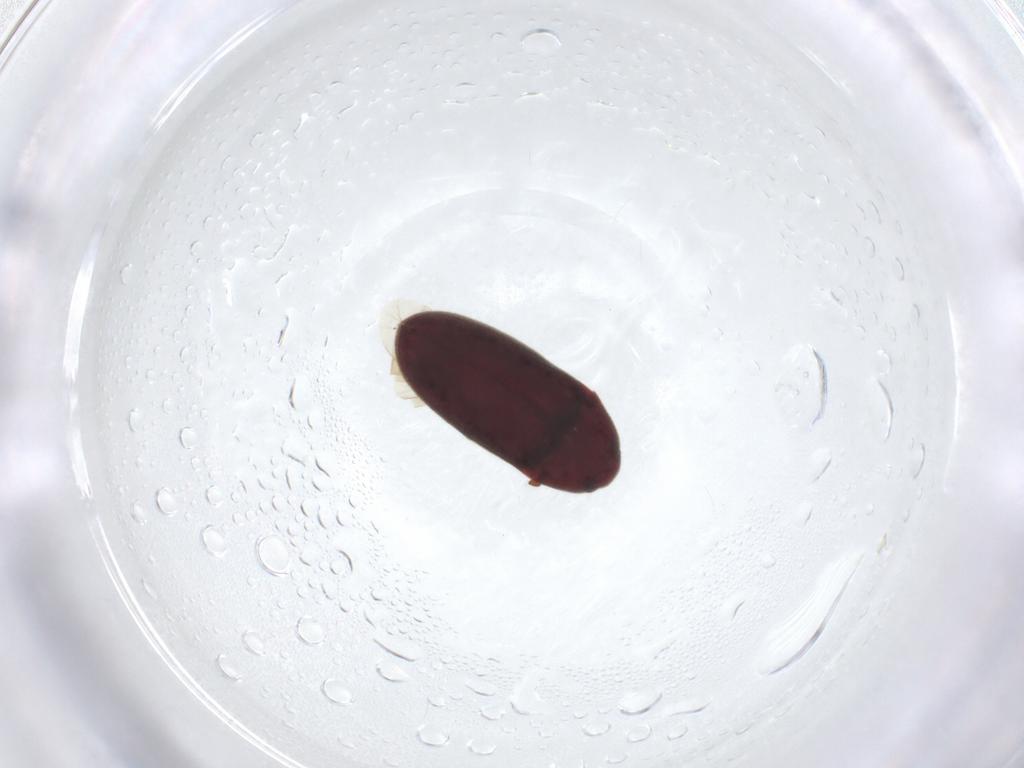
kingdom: Animalia
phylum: Arthropoda
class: Insecta
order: Coleoptera
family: Throscidae
